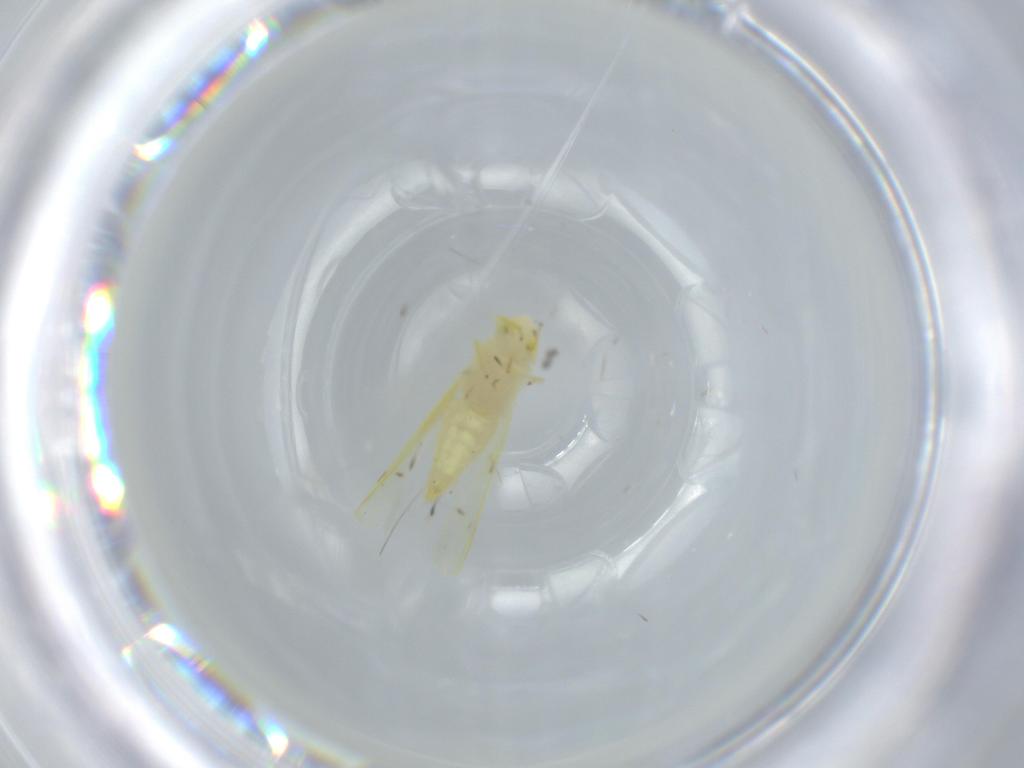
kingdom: Animalia
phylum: Arthropoda
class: Insecta
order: Hemiptera
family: Cicadellidae
